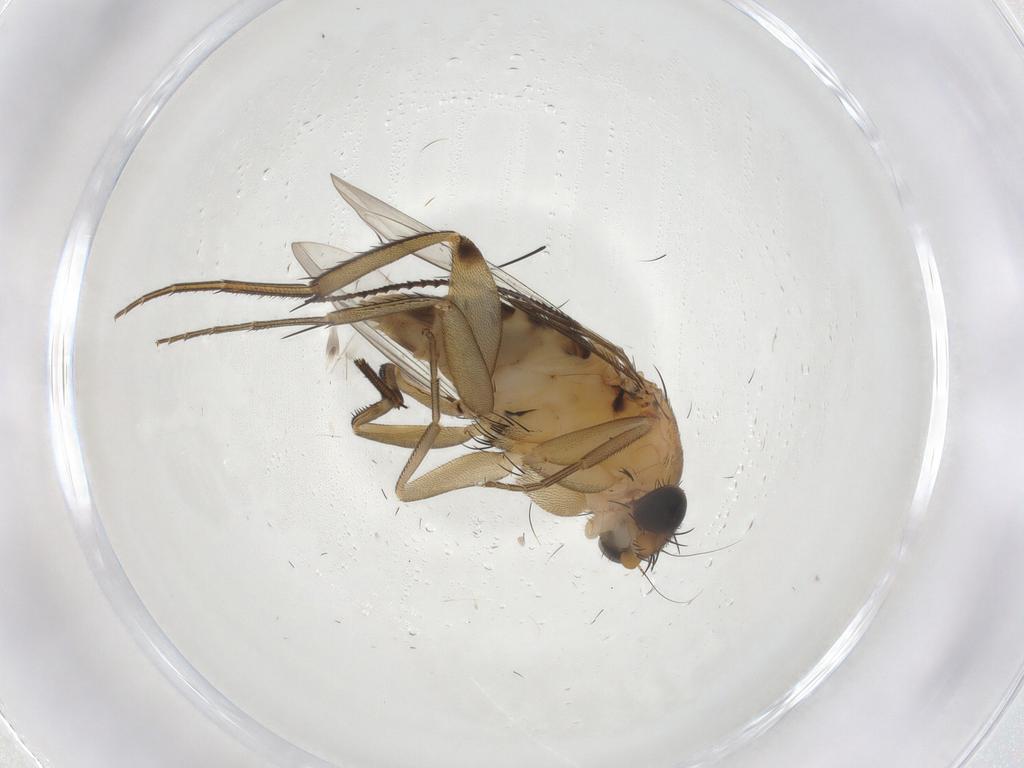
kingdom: Animalia
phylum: Arthropoda
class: Insecta
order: Diptera
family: Phoridae
